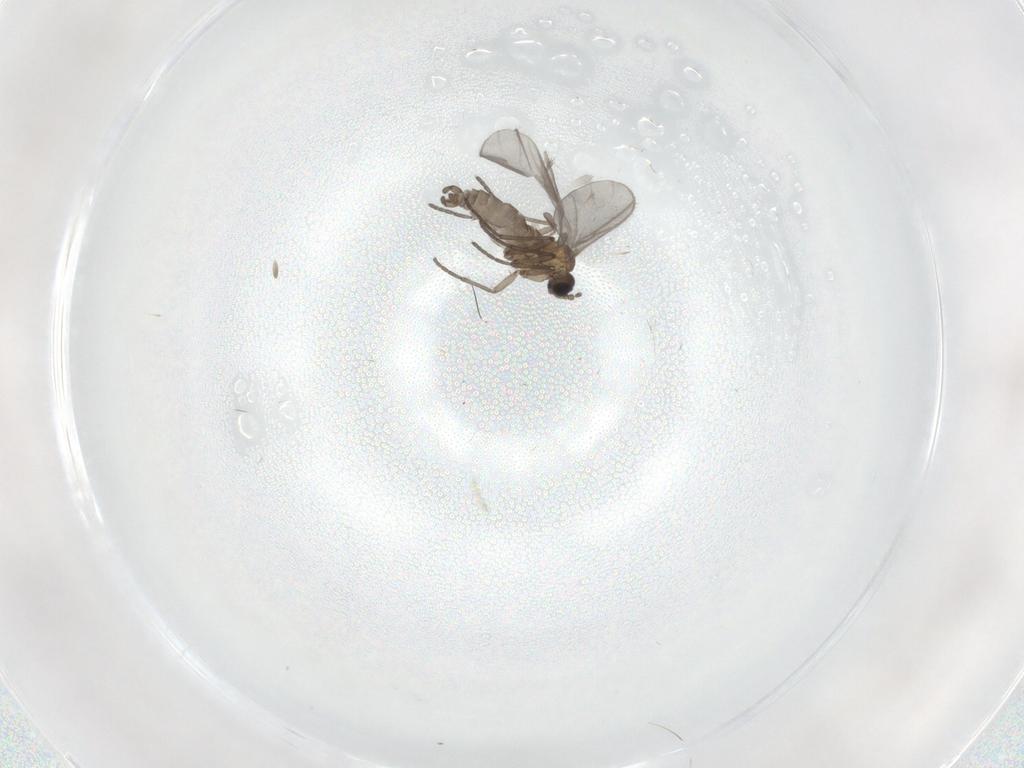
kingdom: Animalia
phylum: Arthropoda
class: Insecta
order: Diptera
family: Sciaridae
